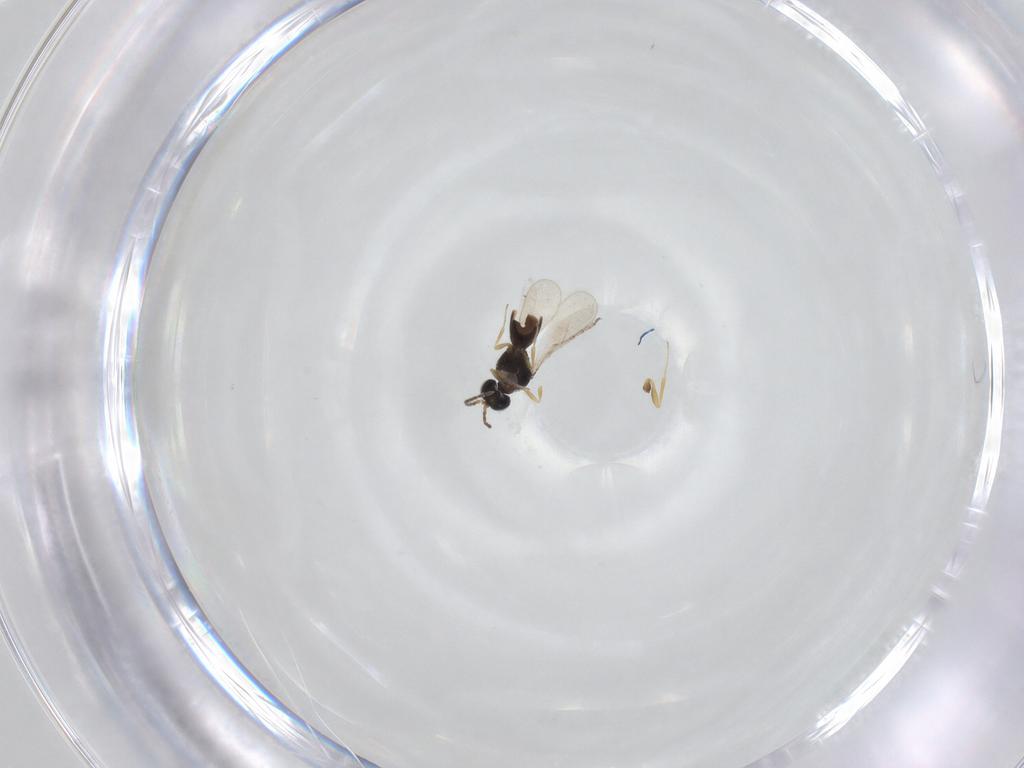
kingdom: Animalia
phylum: Arthropoda
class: Insecta
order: Hymenoptera
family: Scelionidae
